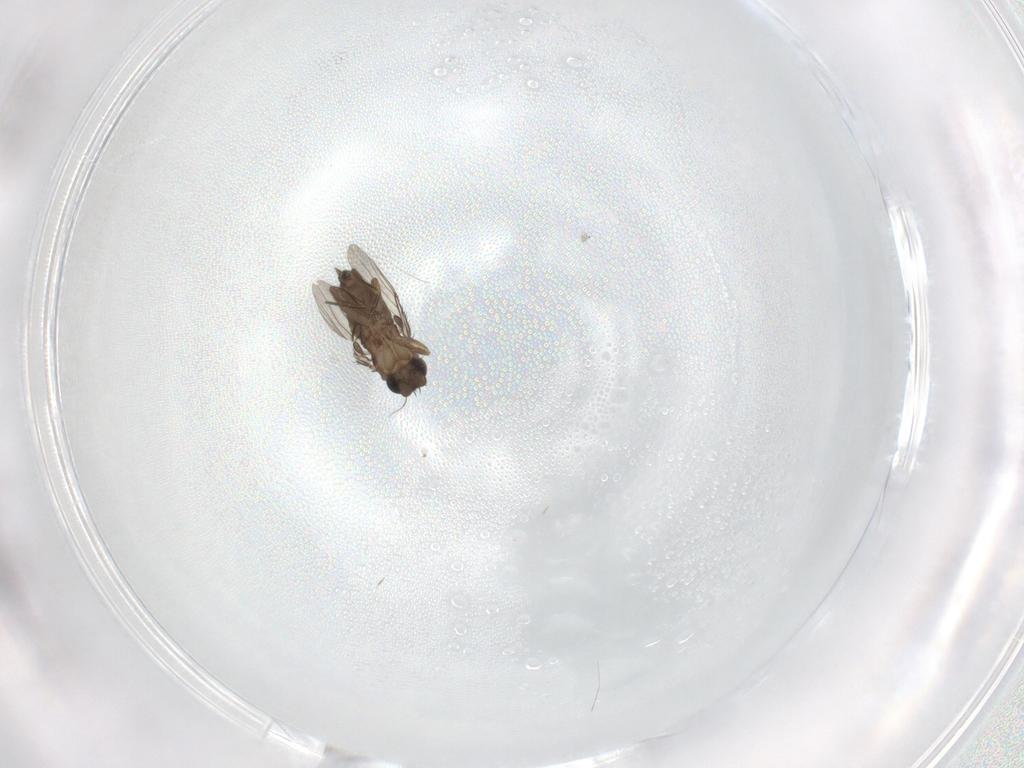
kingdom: Animalia
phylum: Arthropoda
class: Insecta
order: Diptera
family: Phoridae
